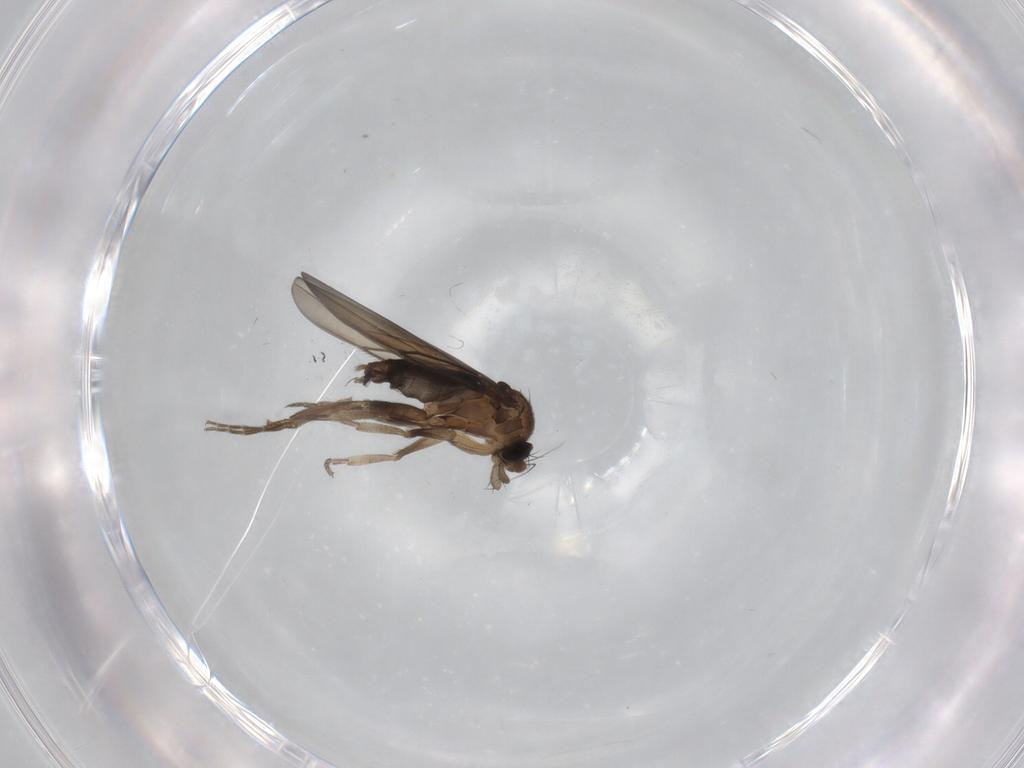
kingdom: Animalia
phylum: Arthropoda
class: Insecta
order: Diptera
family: Phoridae
